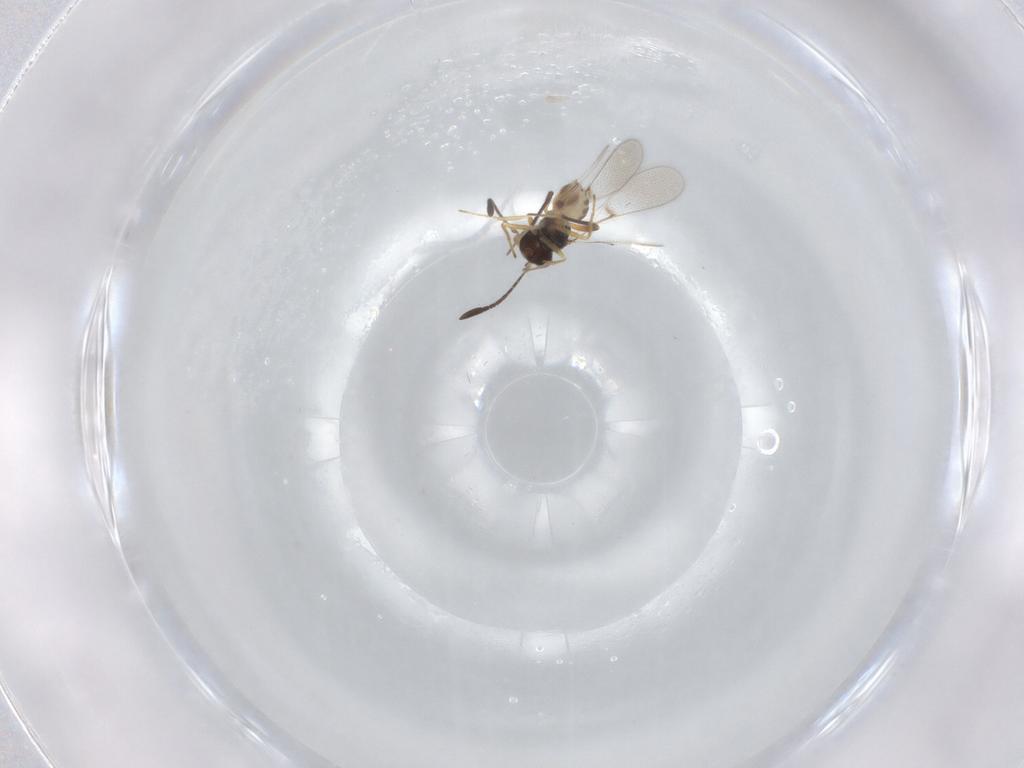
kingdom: Animalia
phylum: Arthropoda
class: Insecta
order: Hymenoptera
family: Mymaridae
